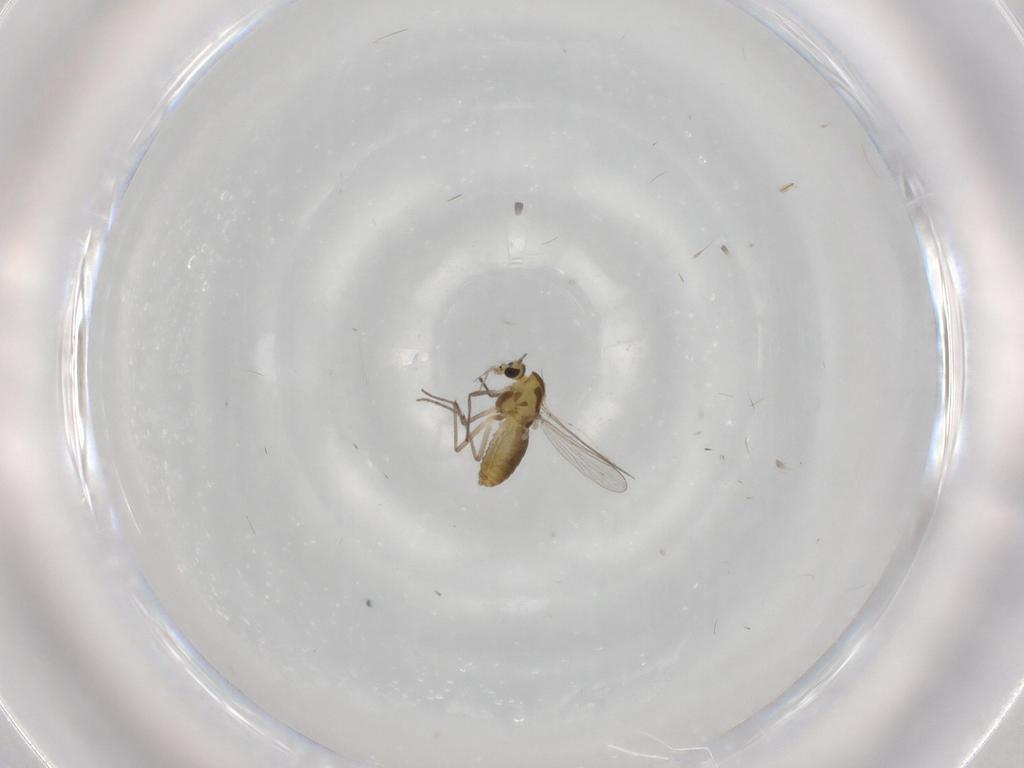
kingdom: Animalia
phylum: Arthropoda
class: Insecta
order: Diptera
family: Chironomidae
